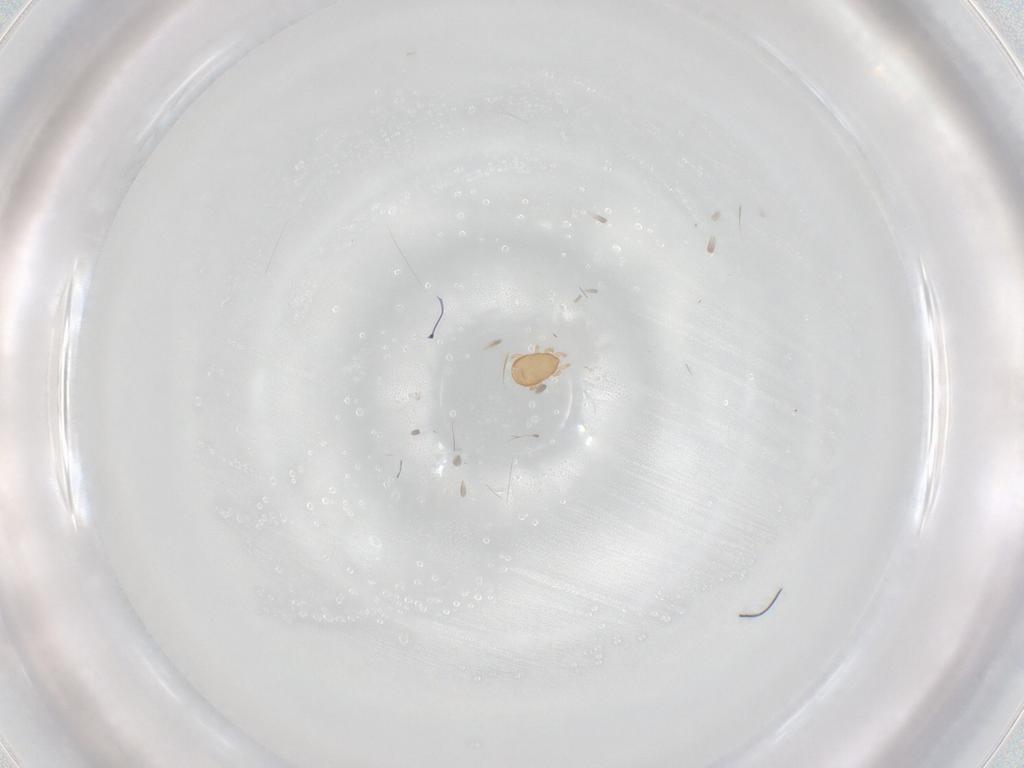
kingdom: Animalia
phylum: Arthropoda
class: Arachnida
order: Mesostigmata
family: Ascidae
